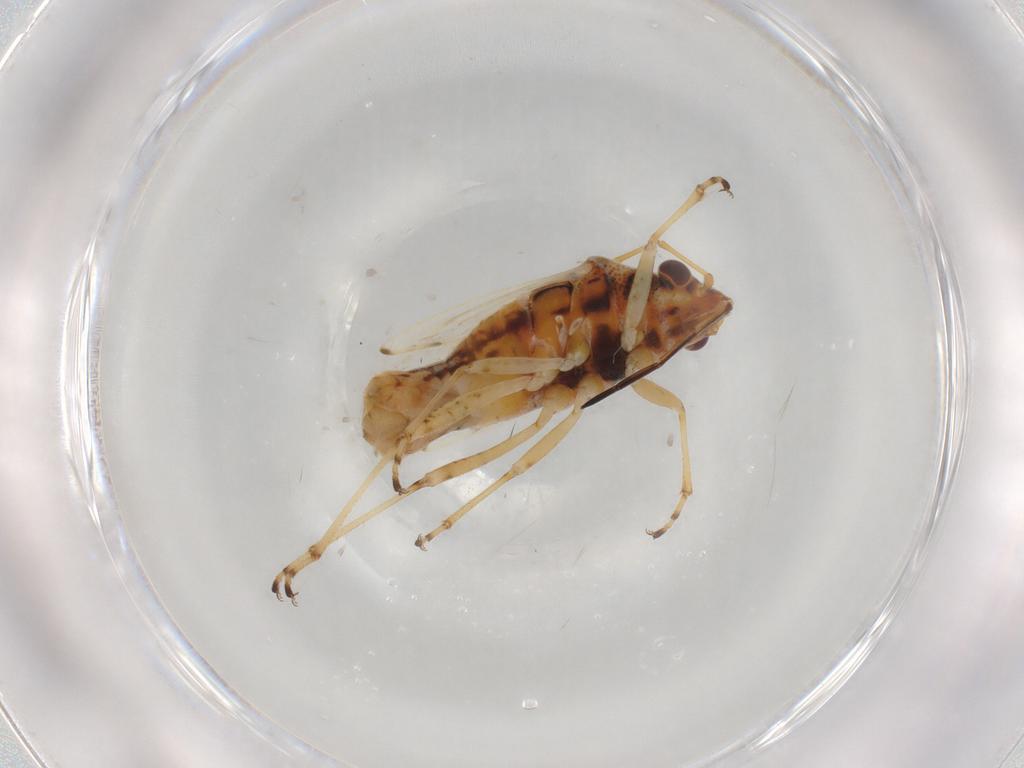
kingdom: Animalia
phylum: Arthropoda
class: Insecta
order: Hemiptera
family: Lygaeidae
